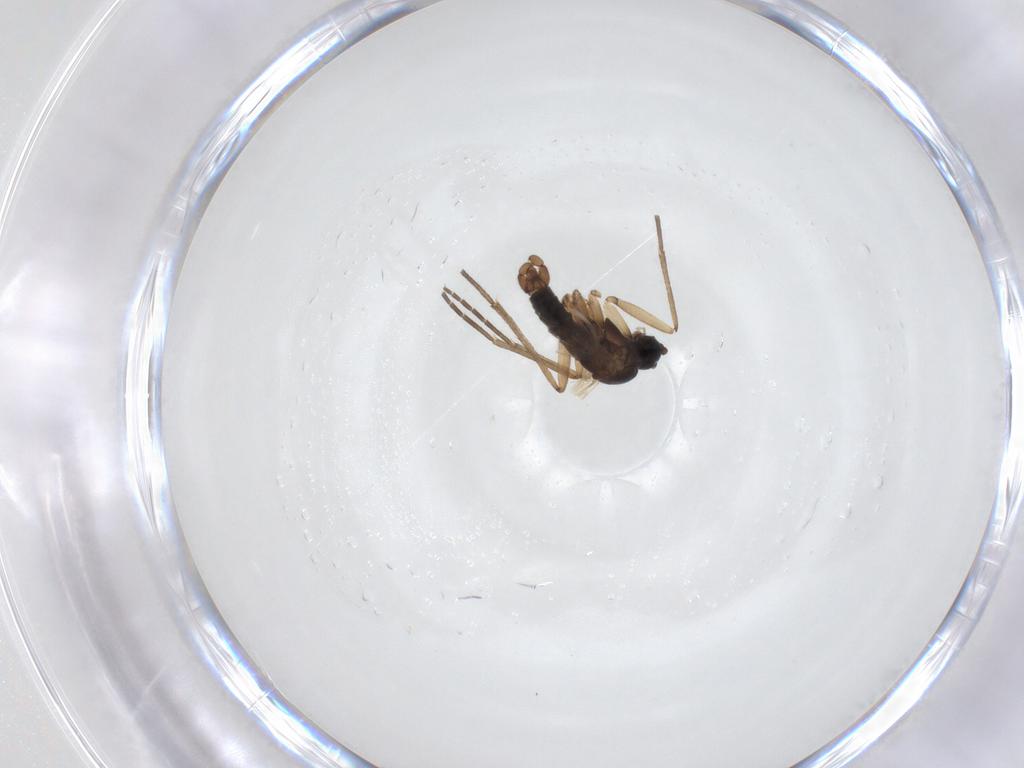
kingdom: Animalia
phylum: Arthropoda
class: Insecta
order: Diptera
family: Sciaridae
